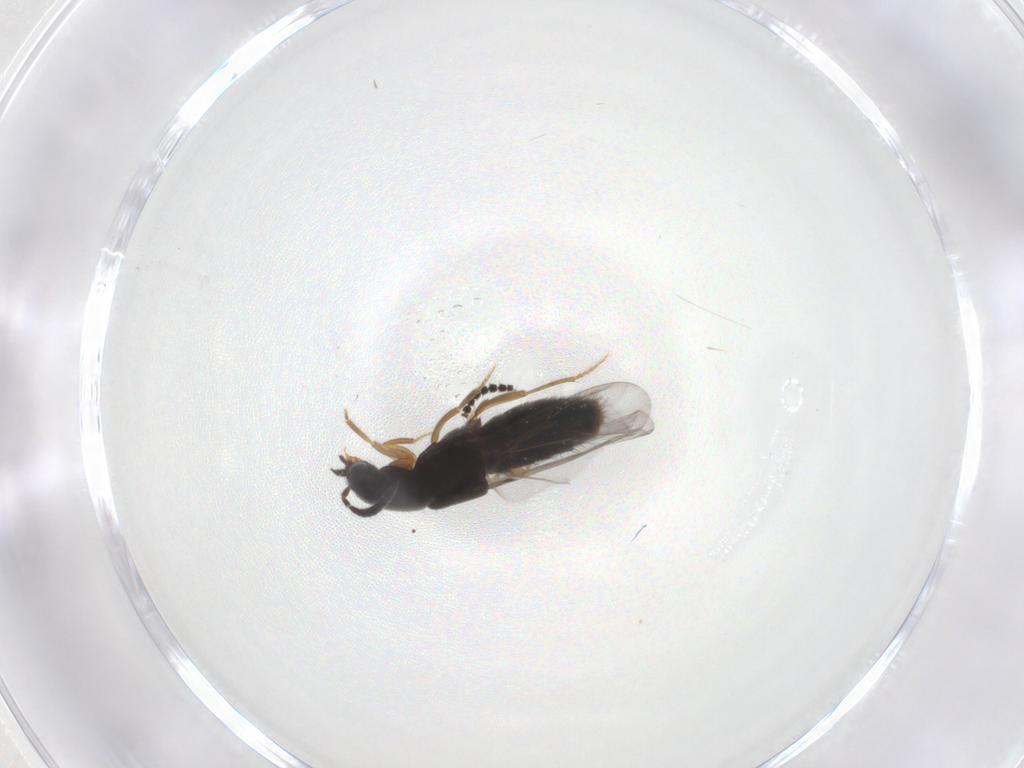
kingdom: Animalia
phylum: Arthropoda
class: Insecta
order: Coleoptera
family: Staphylinidae
